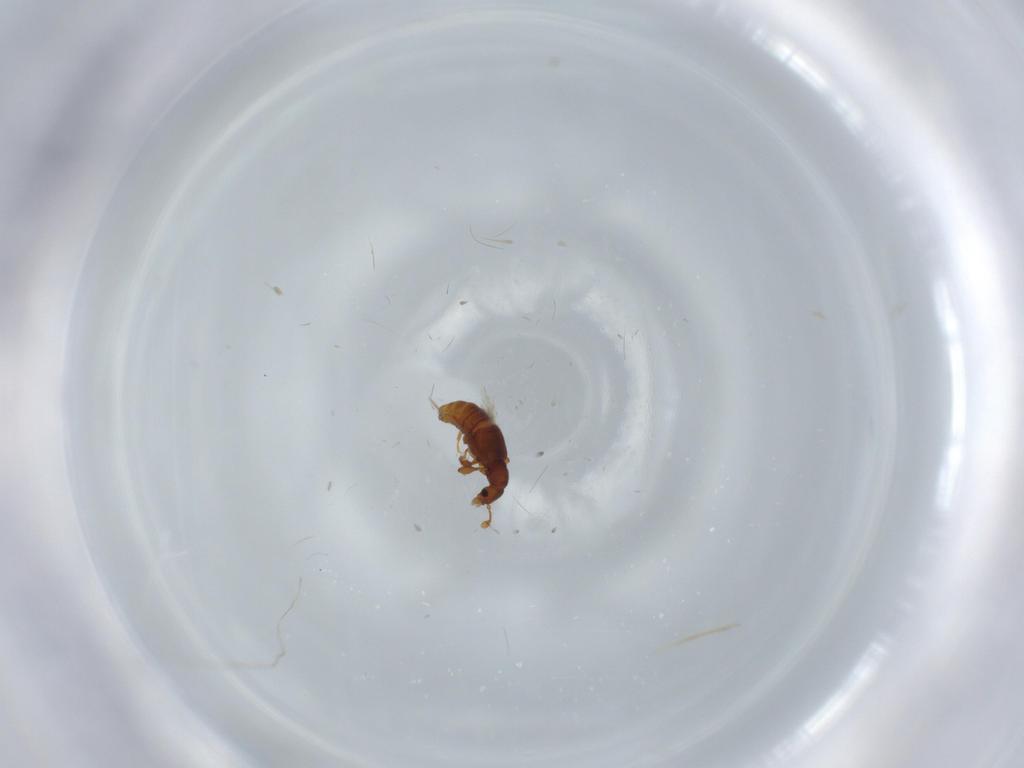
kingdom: Animalia
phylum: Arthropoda
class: Insecta
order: Coleoptera
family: Staphylinidae
